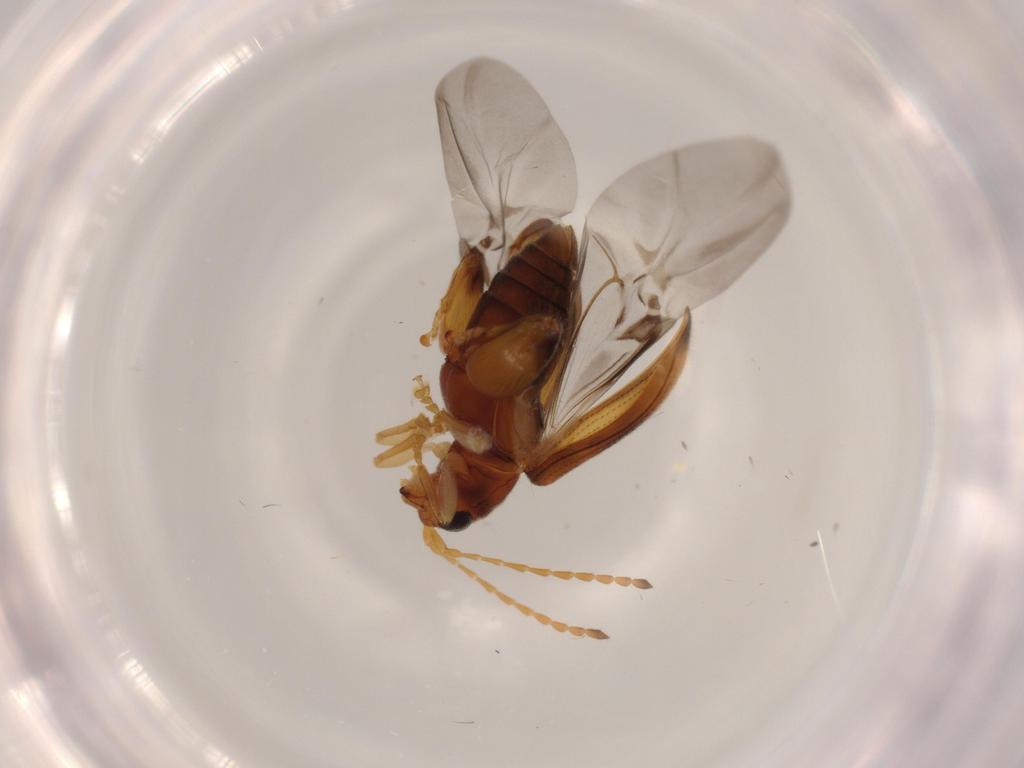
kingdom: Animalia
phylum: Arthropoda
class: Insecta
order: Coleoptera
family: Chrysomelidae
